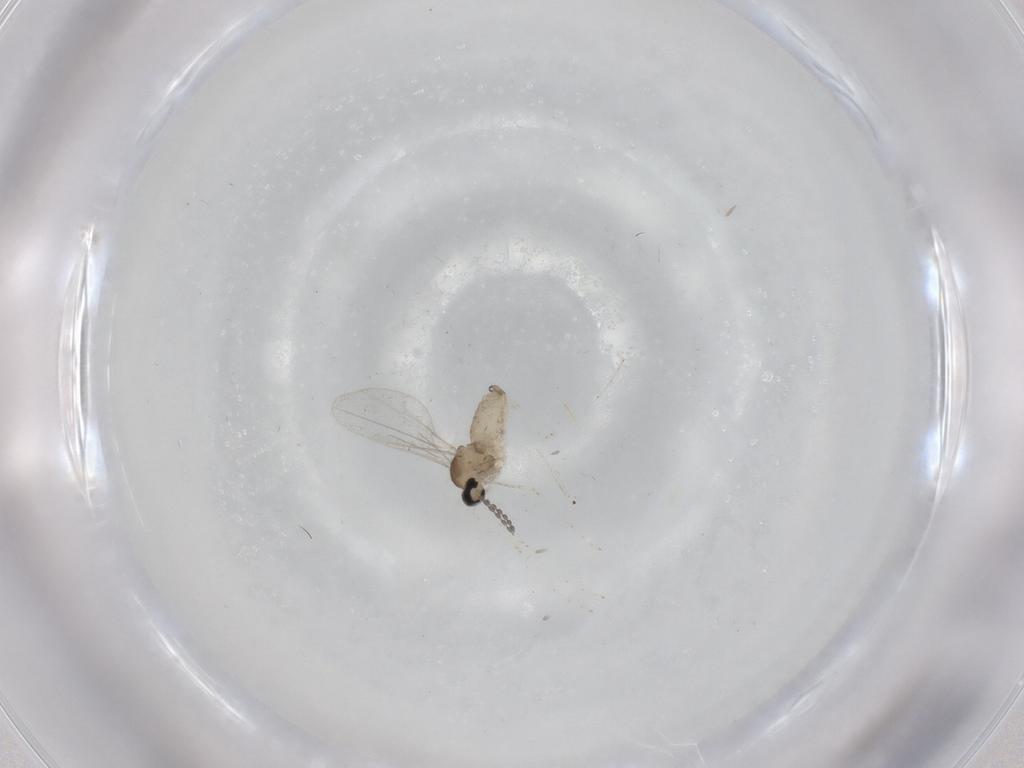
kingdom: Animalia
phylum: Arthropoda
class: Insecta
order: Diptera
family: Cecidomyiidae
